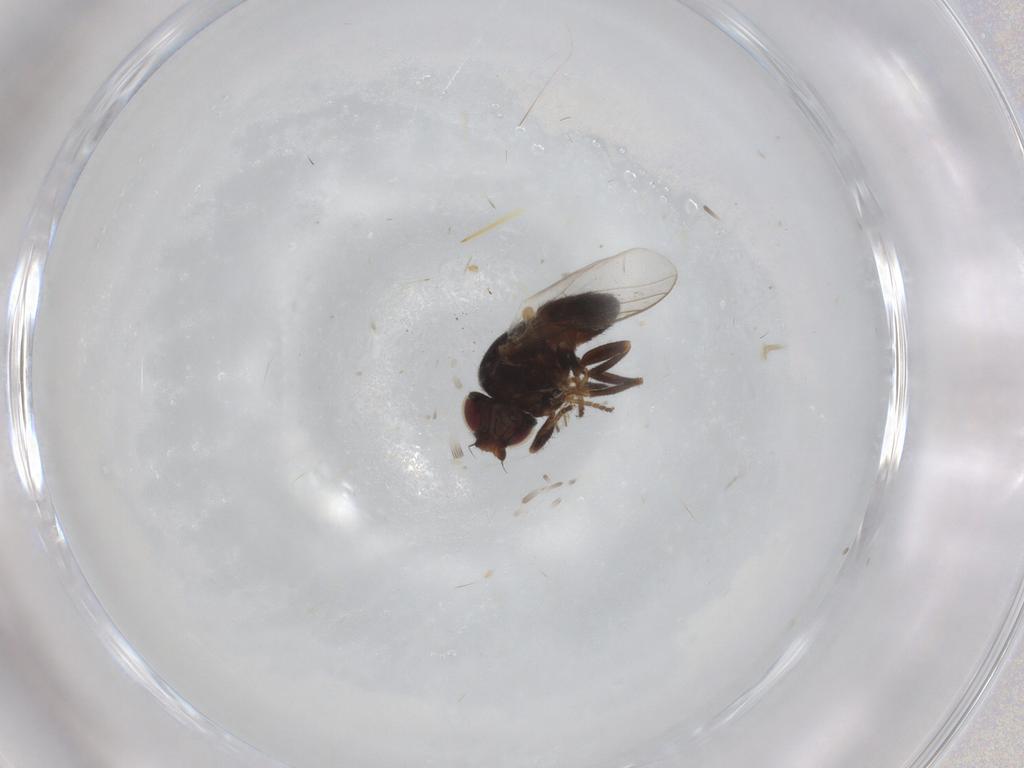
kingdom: Animalia
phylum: Arthropoda
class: Insecta
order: Diptera
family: Chloropidae
